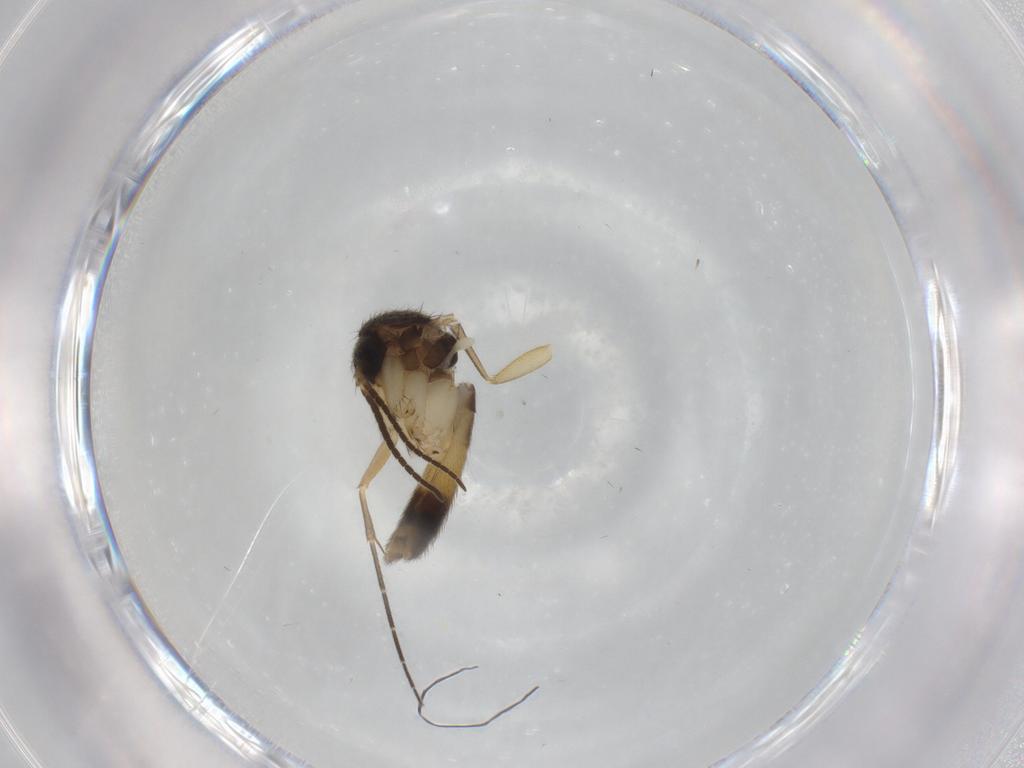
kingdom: Animalia
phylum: Arthropoda
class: Insecta
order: Diptera
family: Mycetophilidae
